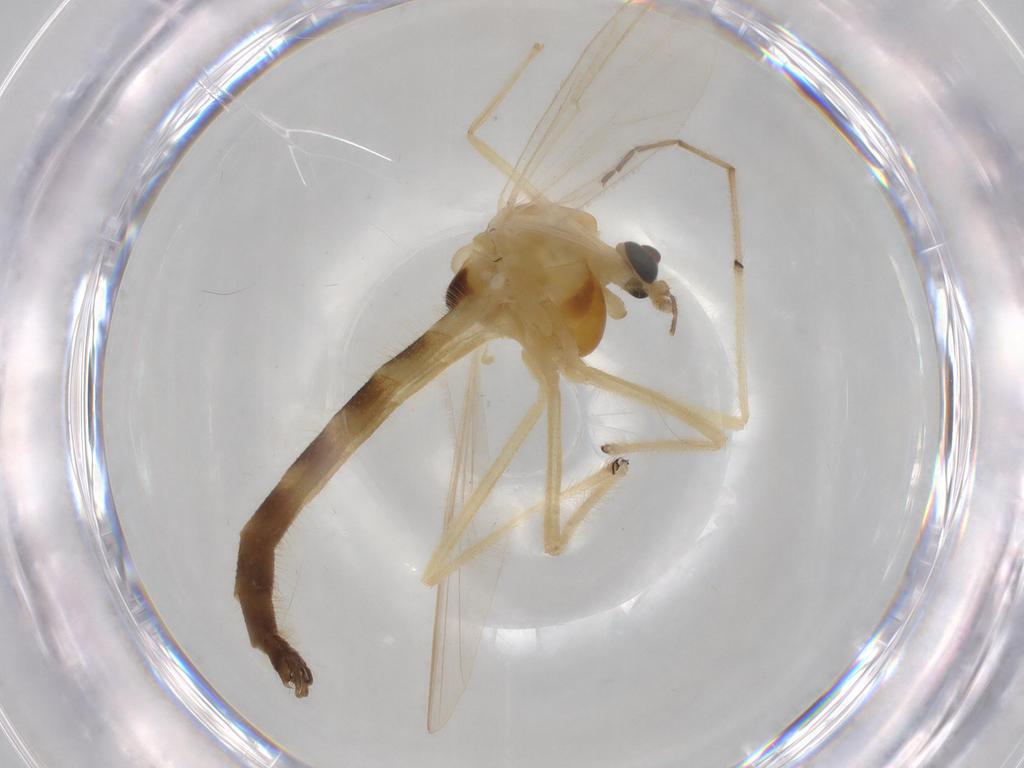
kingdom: Animalia
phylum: Arthropoda
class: Insecta
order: Diptera
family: Chironomidae
